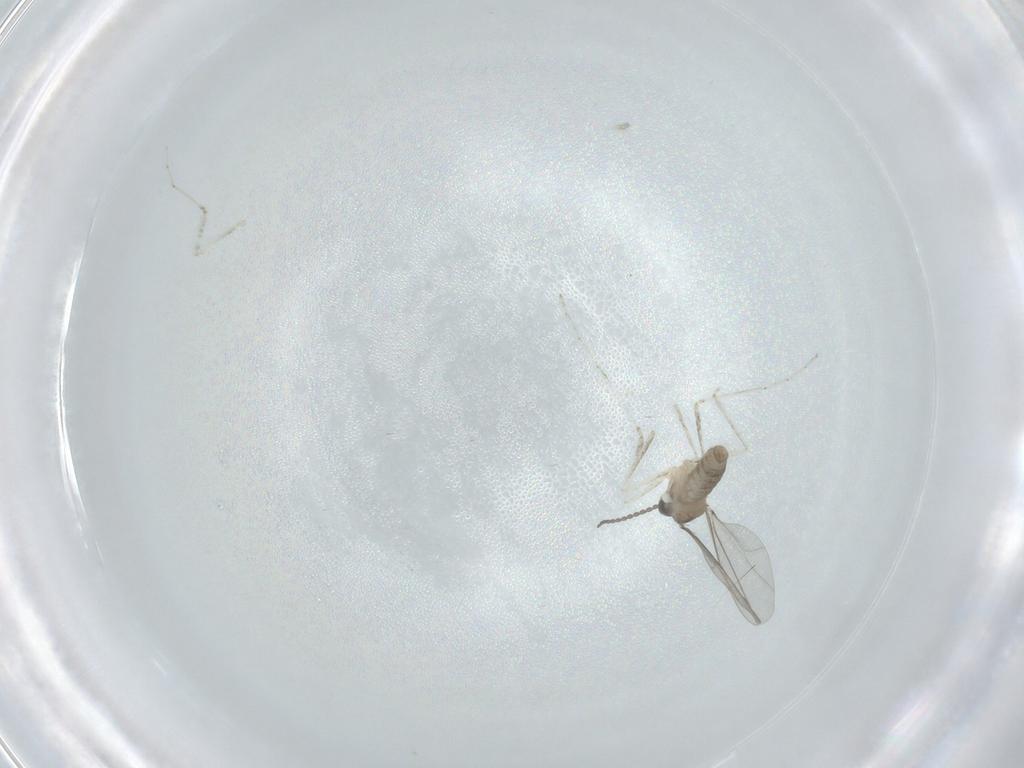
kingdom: Animalia
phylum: Arthropoda
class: Insecta
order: Diptera
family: Cecidomyiidae
